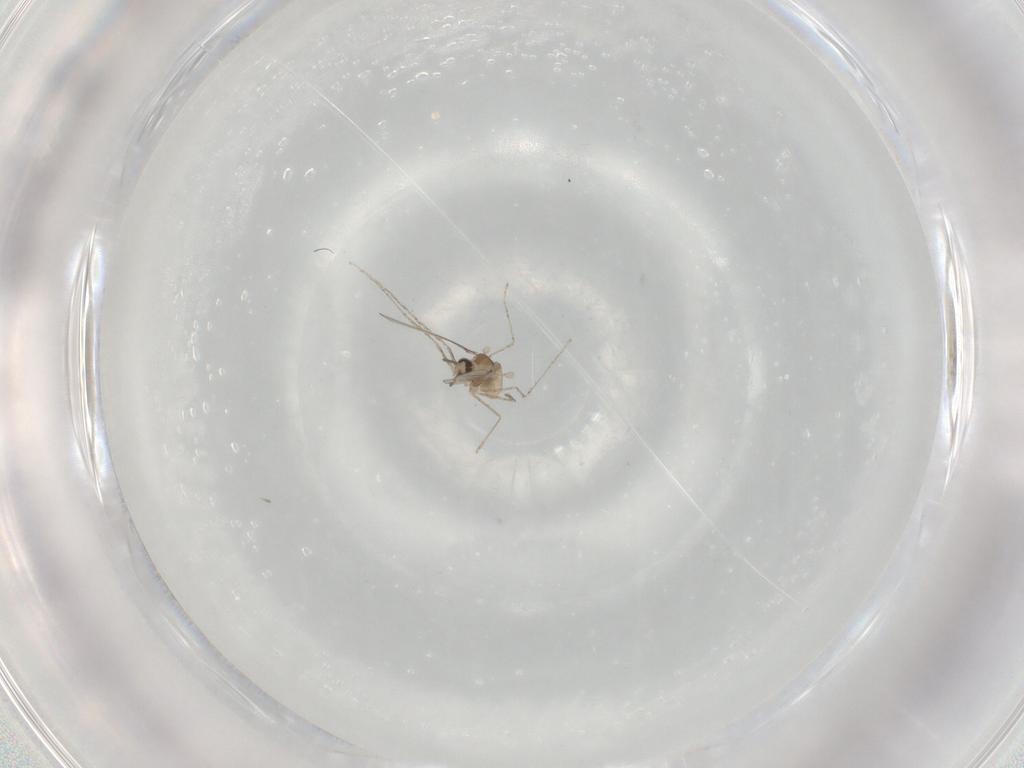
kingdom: Animalia
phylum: Arthropoda
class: Insecta
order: Diptera
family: Cecidomyiidae
